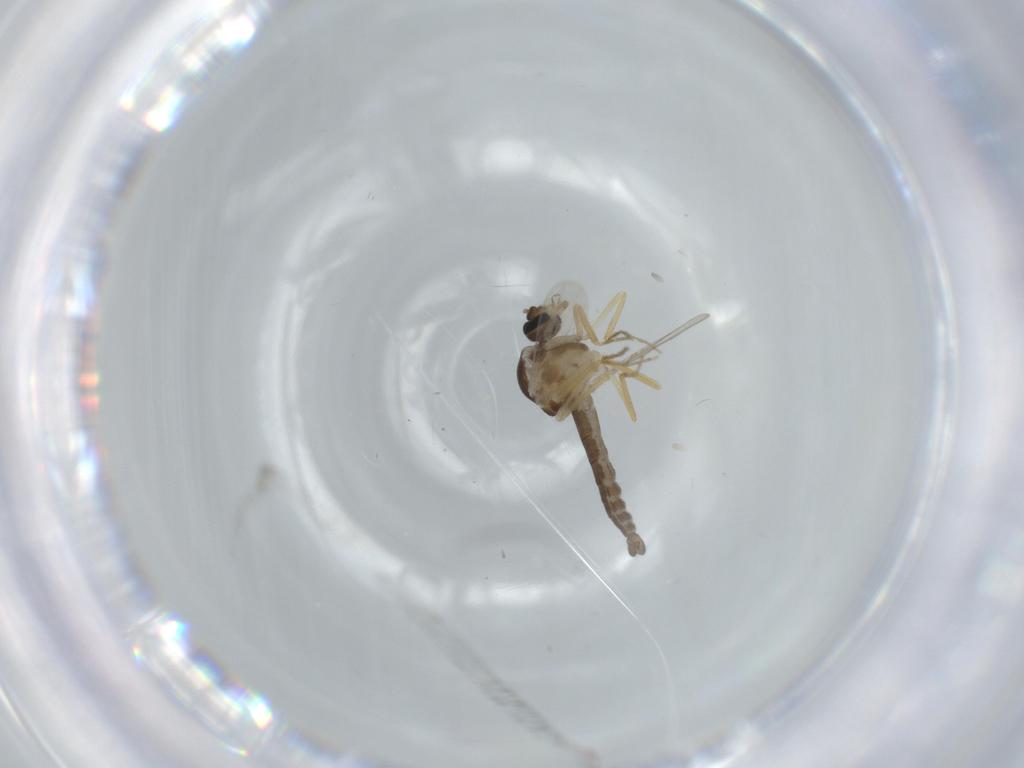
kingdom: Animalia
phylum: Arthropoda
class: Insecta
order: Diptera
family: Ceratopogonidae
